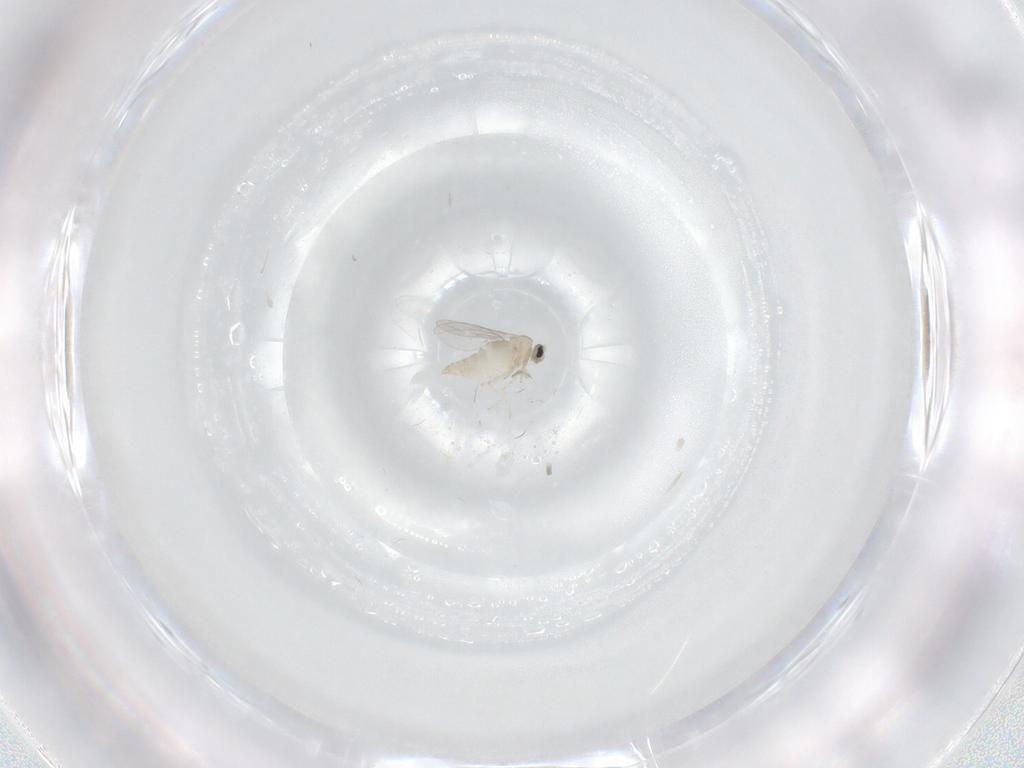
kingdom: Animalia
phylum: Arthropoda
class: Insecta
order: Diptera
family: Cecidomyiidae
